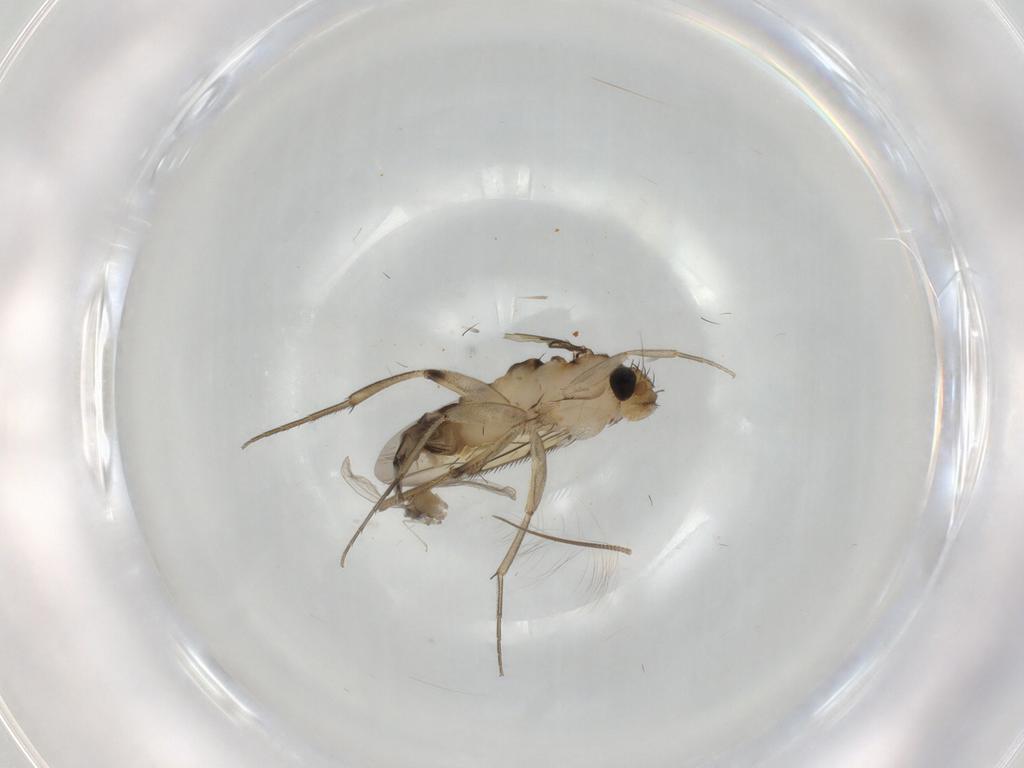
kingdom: Animalia
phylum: Arthropoda
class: Insecta
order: Diptera
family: Phoridae
